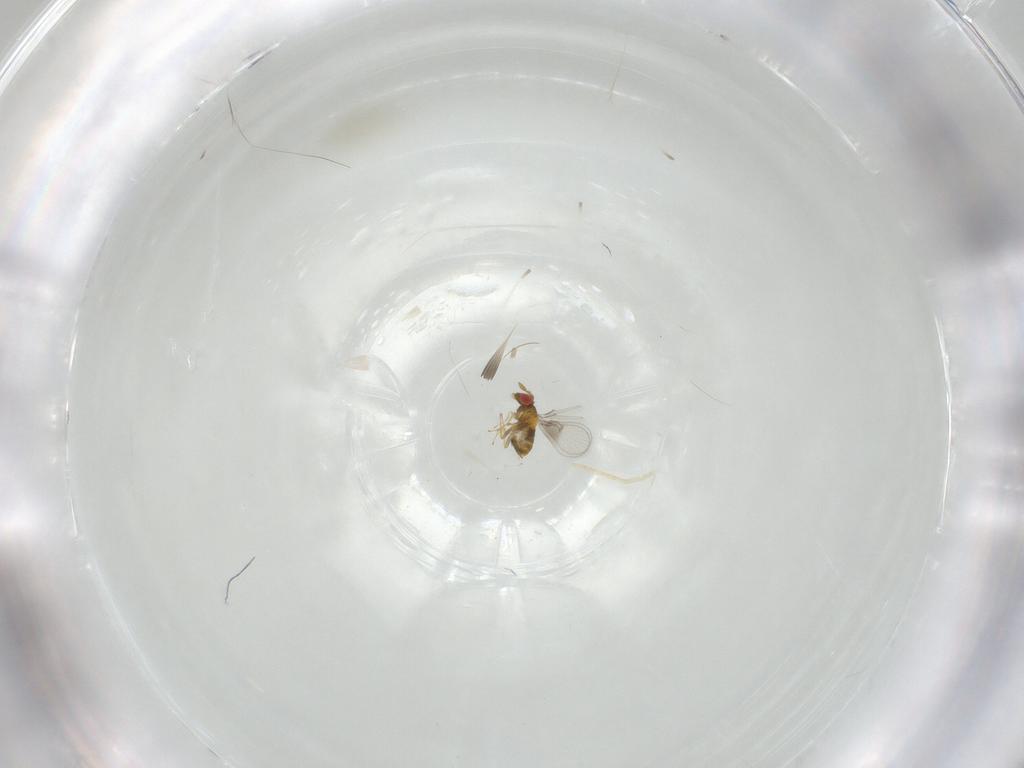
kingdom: Animalia
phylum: Arthropoda
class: Insecta
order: Hymenoptera
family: Trichogrammatidae
